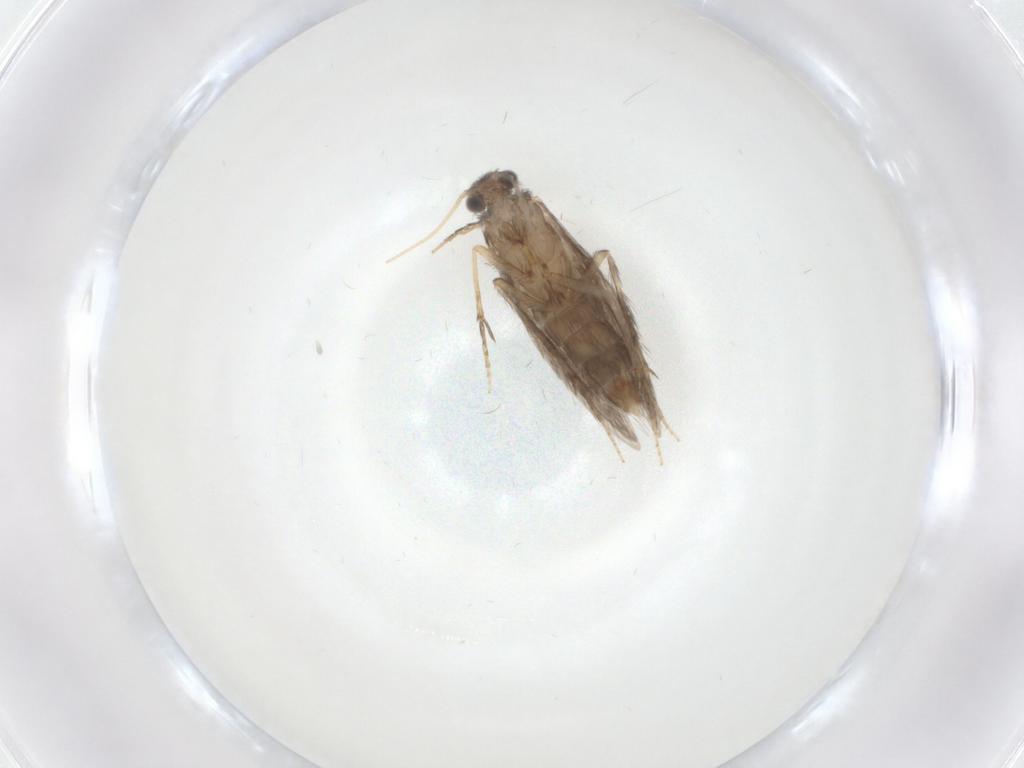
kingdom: Animalia
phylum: Arthropoda
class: Insecta
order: Trichoptera
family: Hydroptilidae
